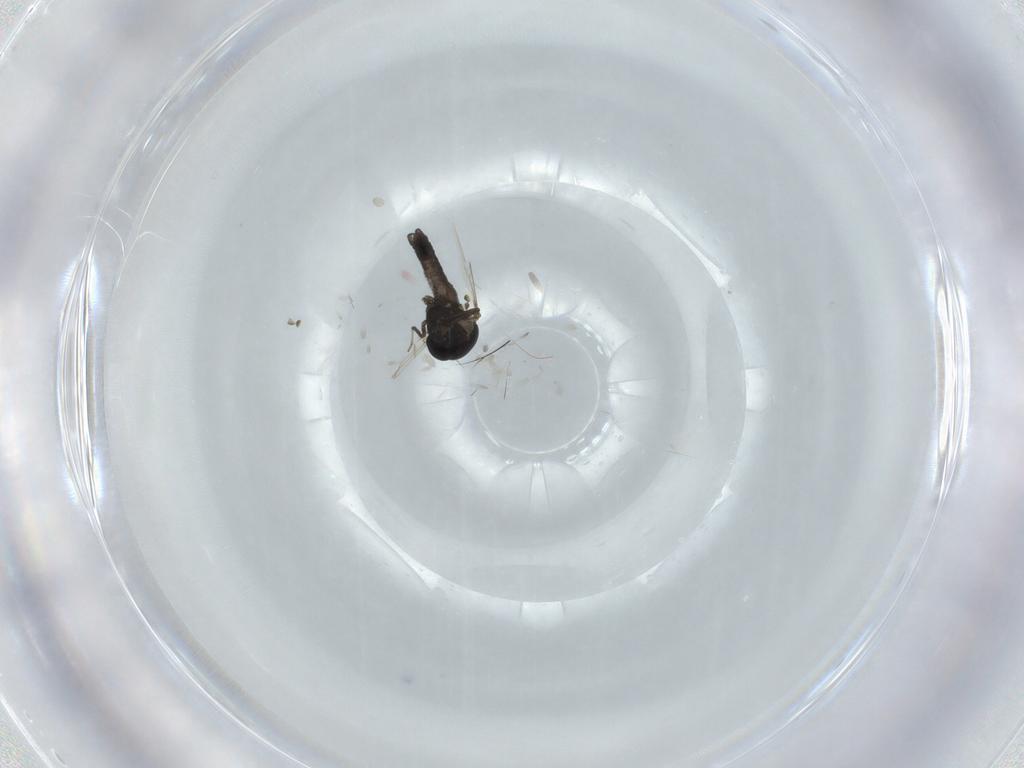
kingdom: Animalia
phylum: Arthropoda
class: Insecta
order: Diptera
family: Ceratopogonidae
